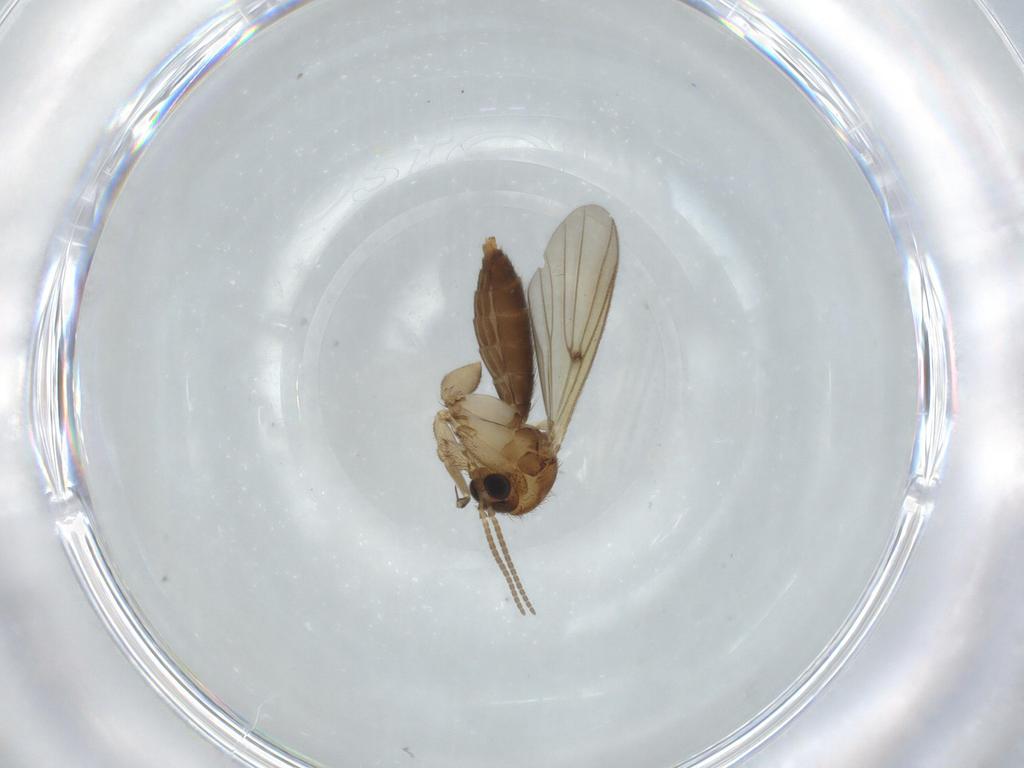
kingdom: Animalia
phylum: Arthropoda
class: Insecta
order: Diptera
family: Mycetophilidae
